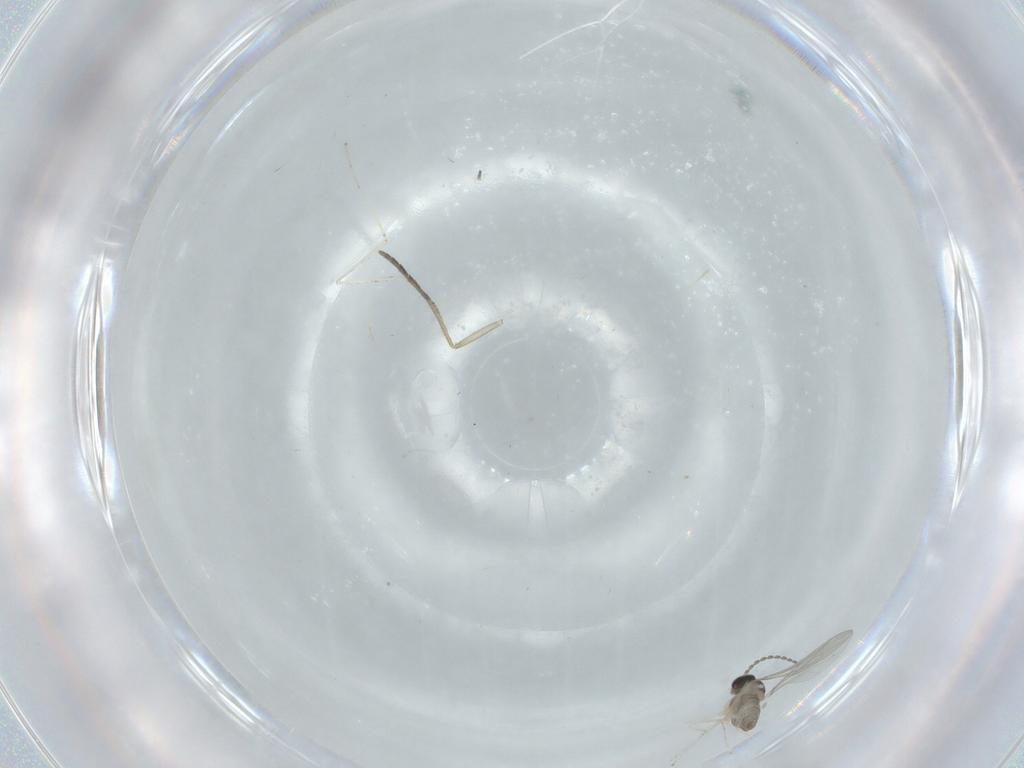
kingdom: Animalia
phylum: Arthropoda
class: Insecta
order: Diptera
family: Cecidomyiidae
